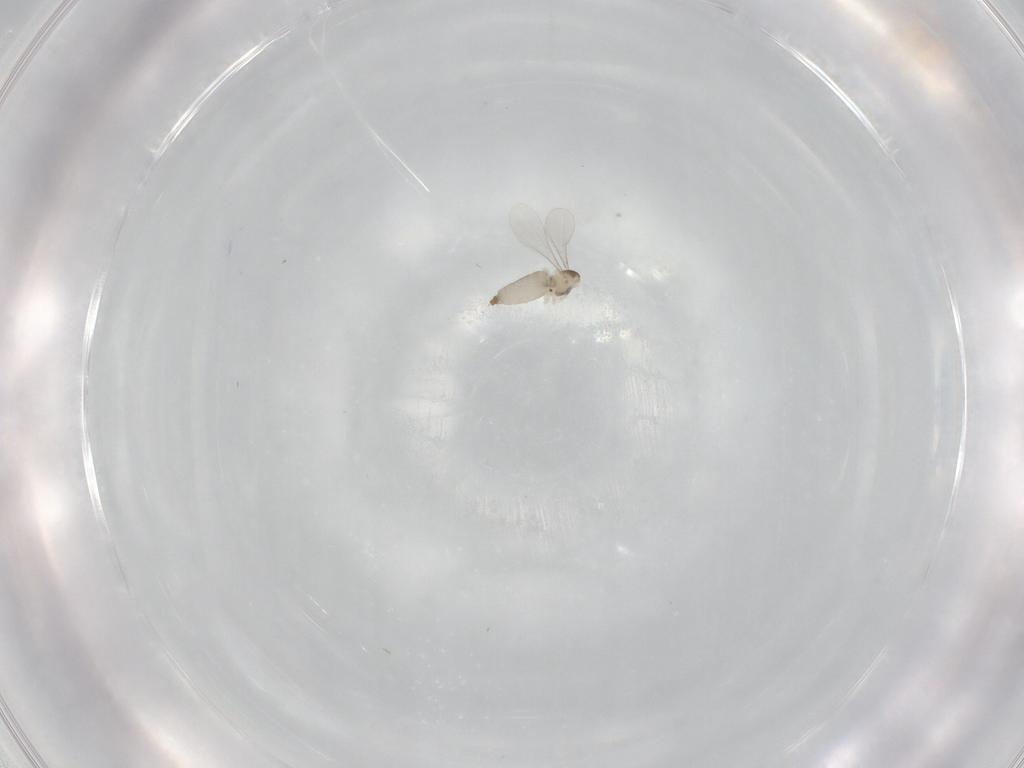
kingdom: Animalia
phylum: Arthropoda
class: Insecta
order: Diptera
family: Cecidomyiidae
